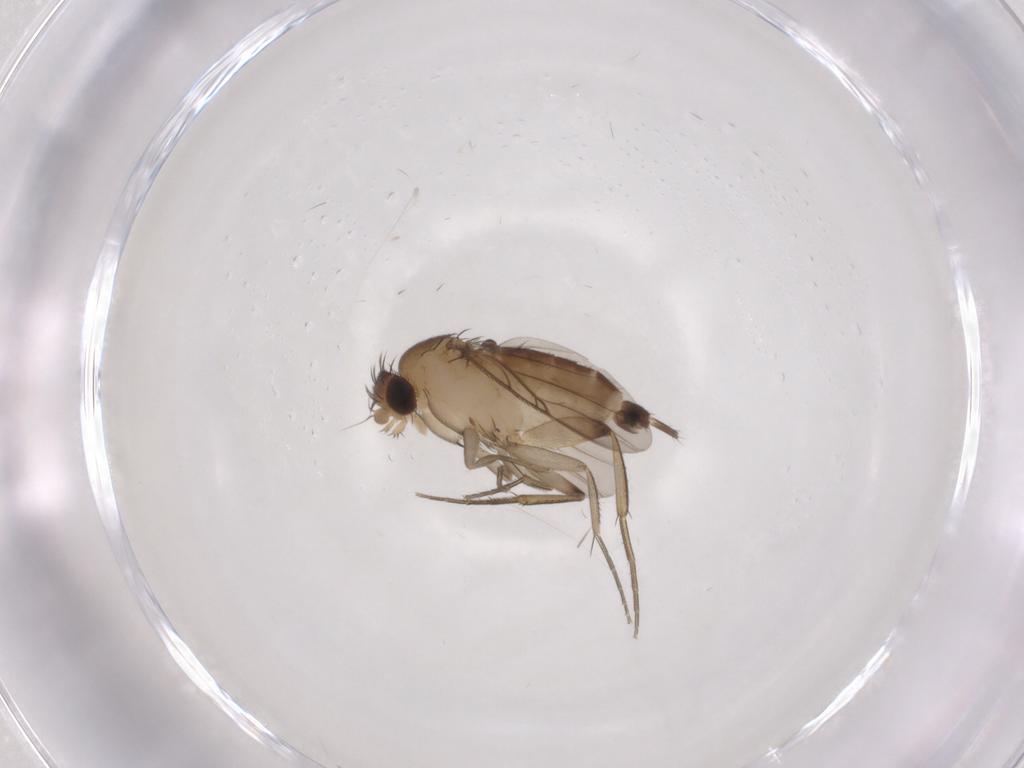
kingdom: Animalia
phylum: Arthropoda
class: Insecta
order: Diptera
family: Phoridae
